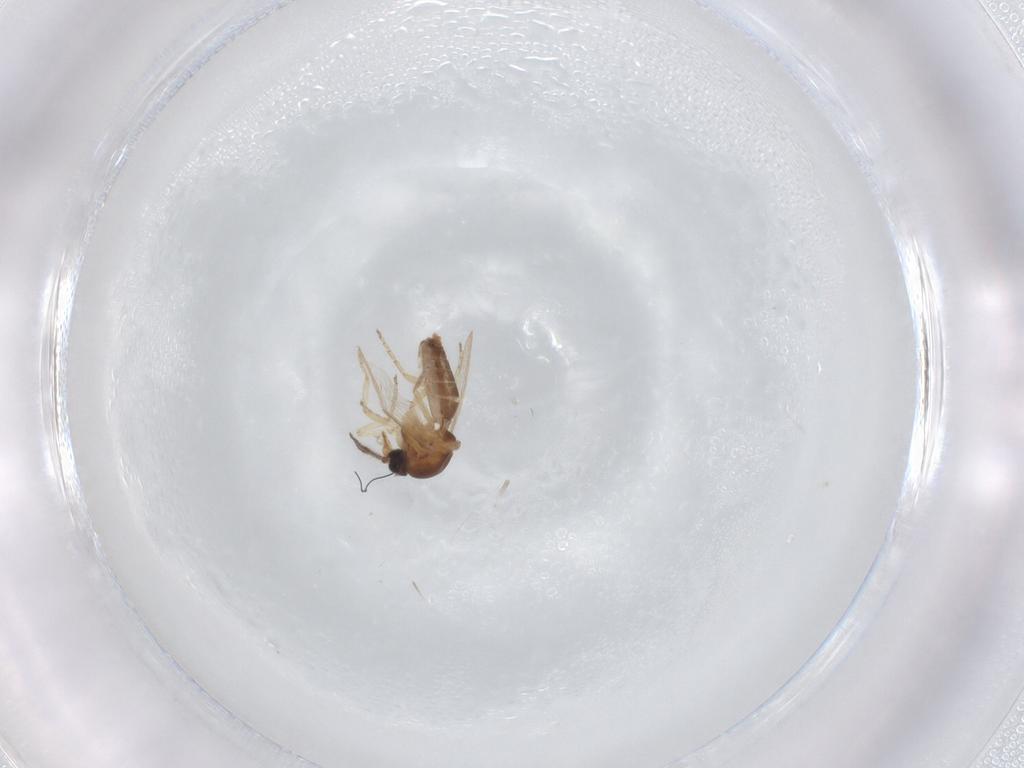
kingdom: Animalia
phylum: Arthropoda
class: Insecta
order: Diptera
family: Ceratopogonidae
